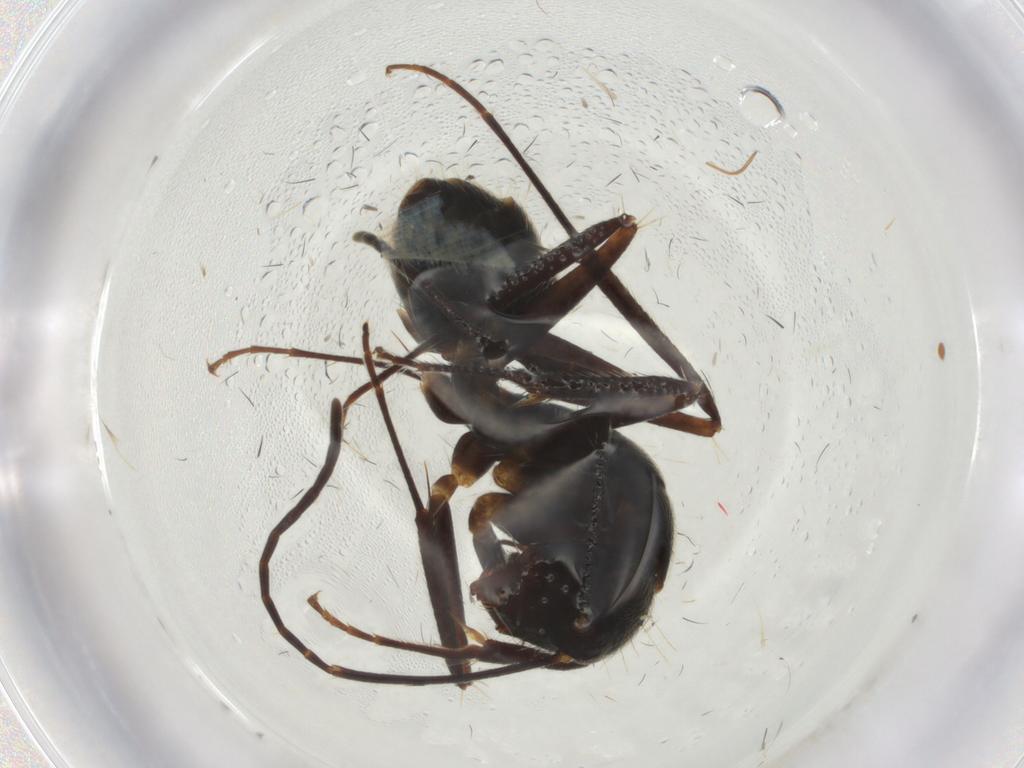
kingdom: Animalia
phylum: Arthropoda
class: Insecta
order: Hymenoptera
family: Formicidae
